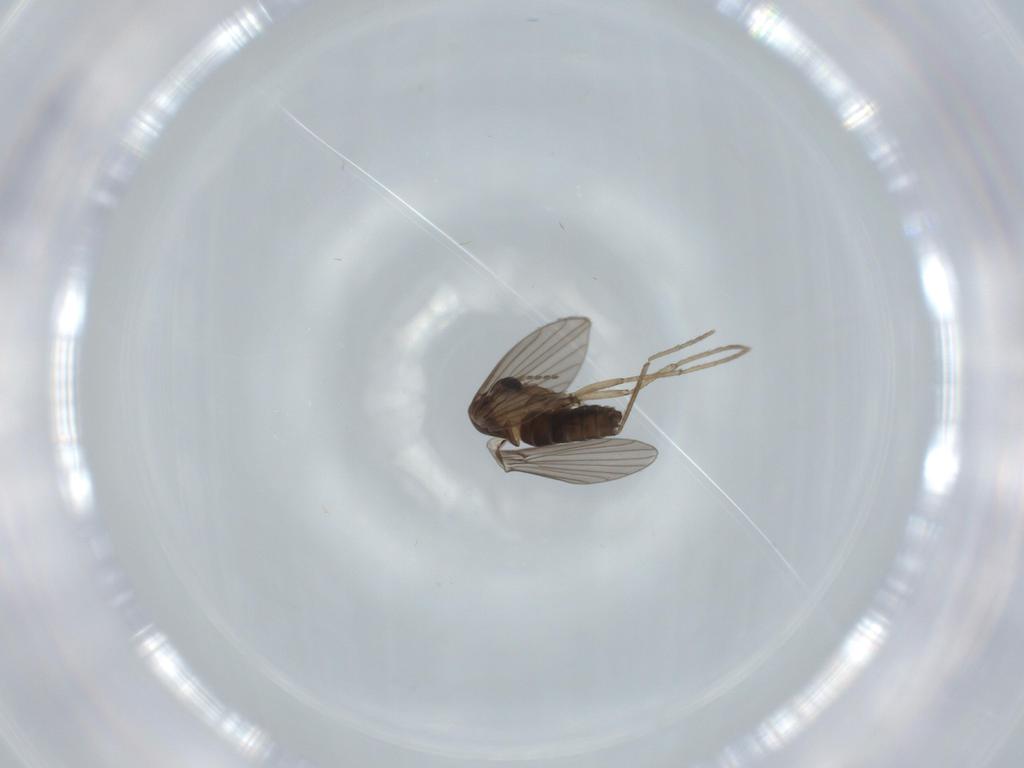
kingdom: Animalia
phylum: Arthropoda
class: Insecta
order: Diptera
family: Psychodidae
